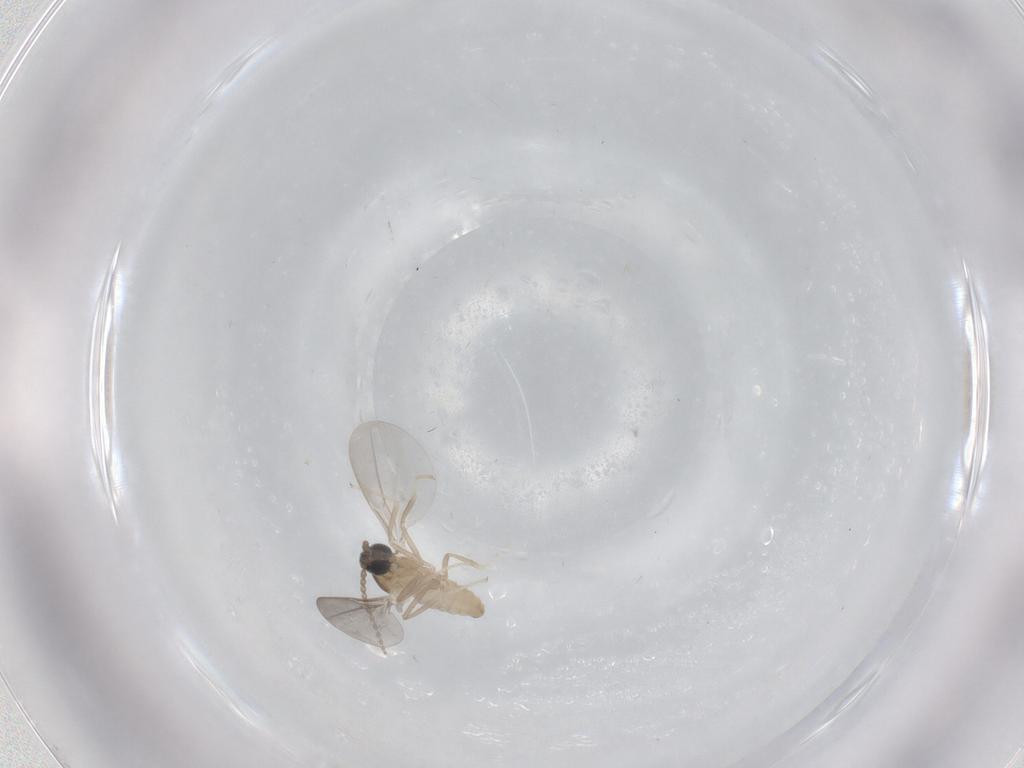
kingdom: Animalia
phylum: Arthropoda
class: Insecta
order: Diptera
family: Cecidomyiidae
